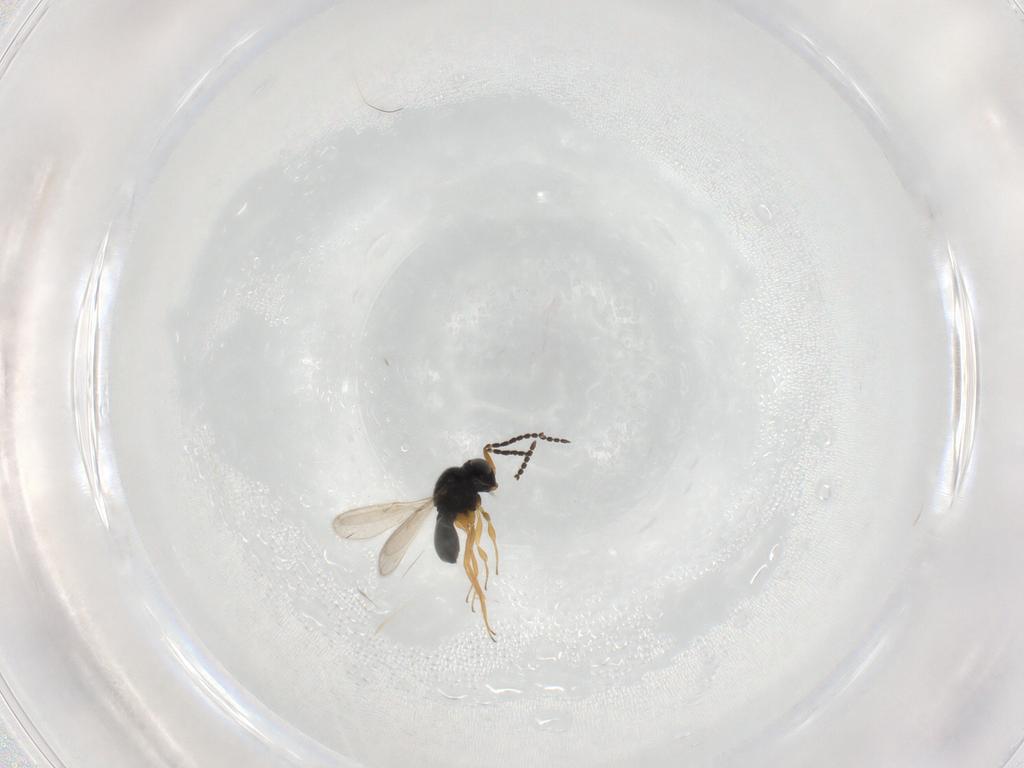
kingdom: Animalia
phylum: Arthropoda
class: Insecta
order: Hymenoptera
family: Scelionidae
